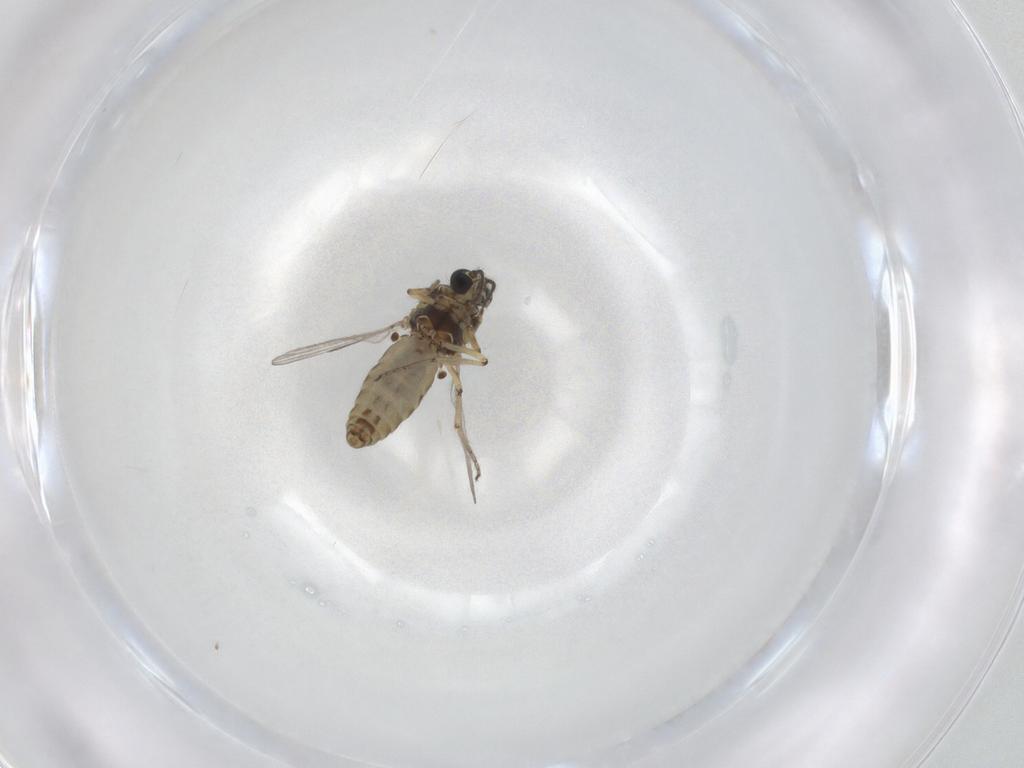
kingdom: Animalia
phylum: Arthropoda
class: Insecta
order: Diptera
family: Ceratopogonidae
